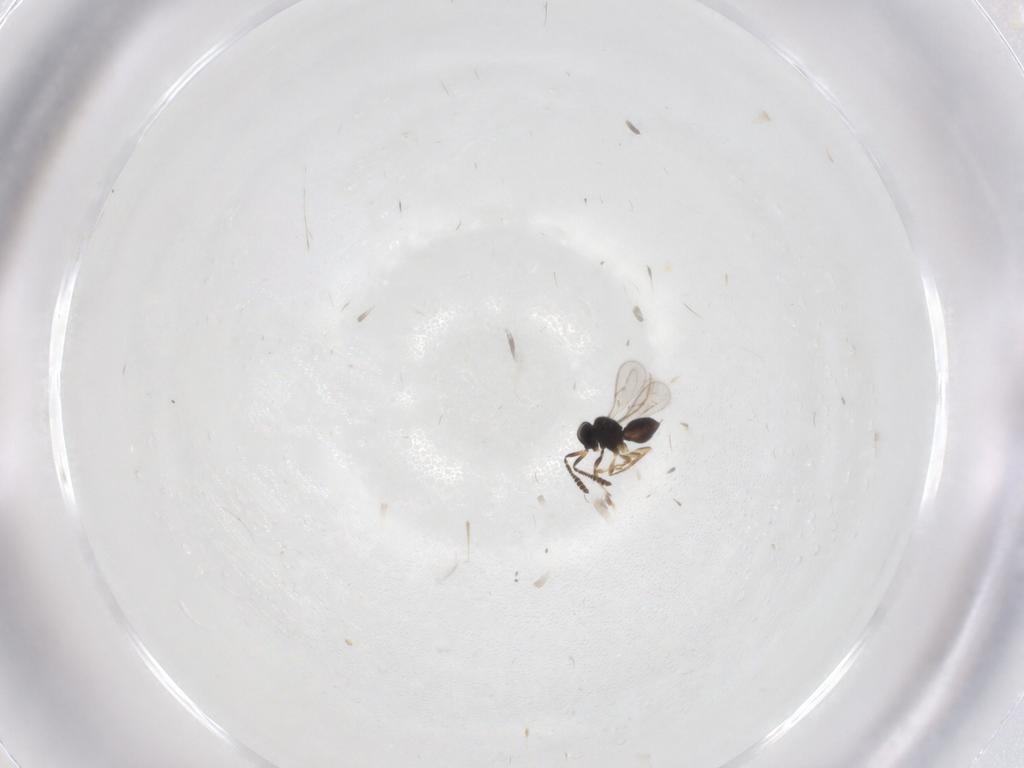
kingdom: Animalia
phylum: Arthropoda
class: Insecta
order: Hymenoptera
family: Scelionidae
